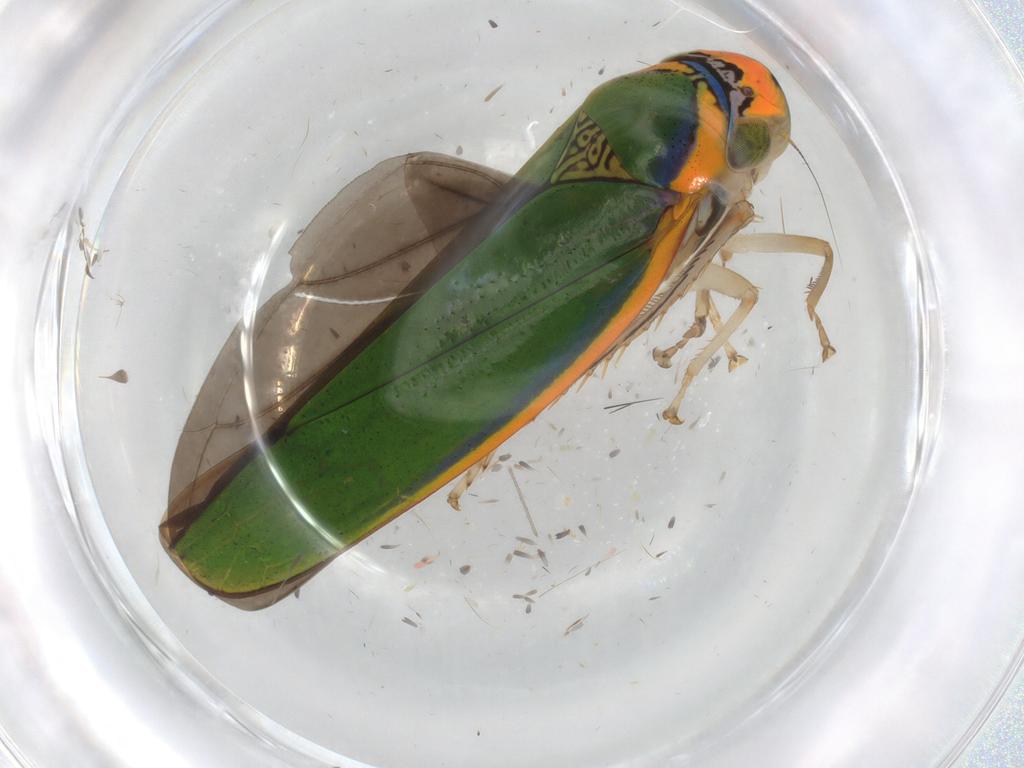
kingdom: Animalia
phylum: Arthropoda
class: Insecta
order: Hemiptera
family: Cicadellidae
